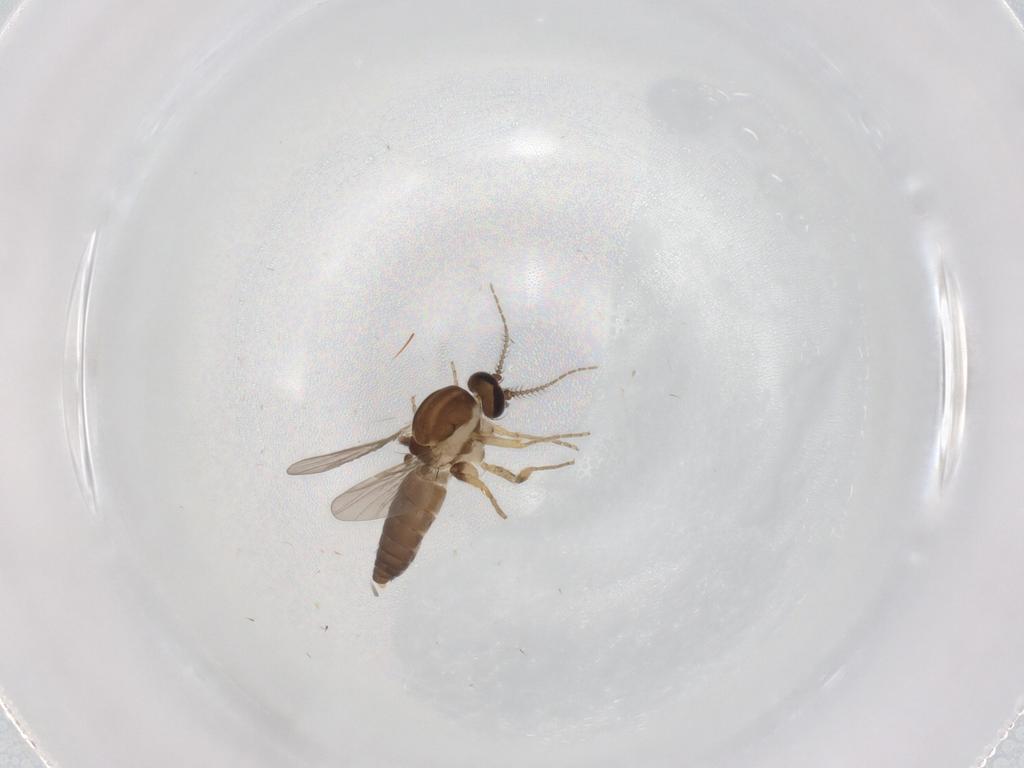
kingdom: Animalia
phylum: Arthropoda
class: Insecta
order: Diptera
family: Ceratopogonidae
